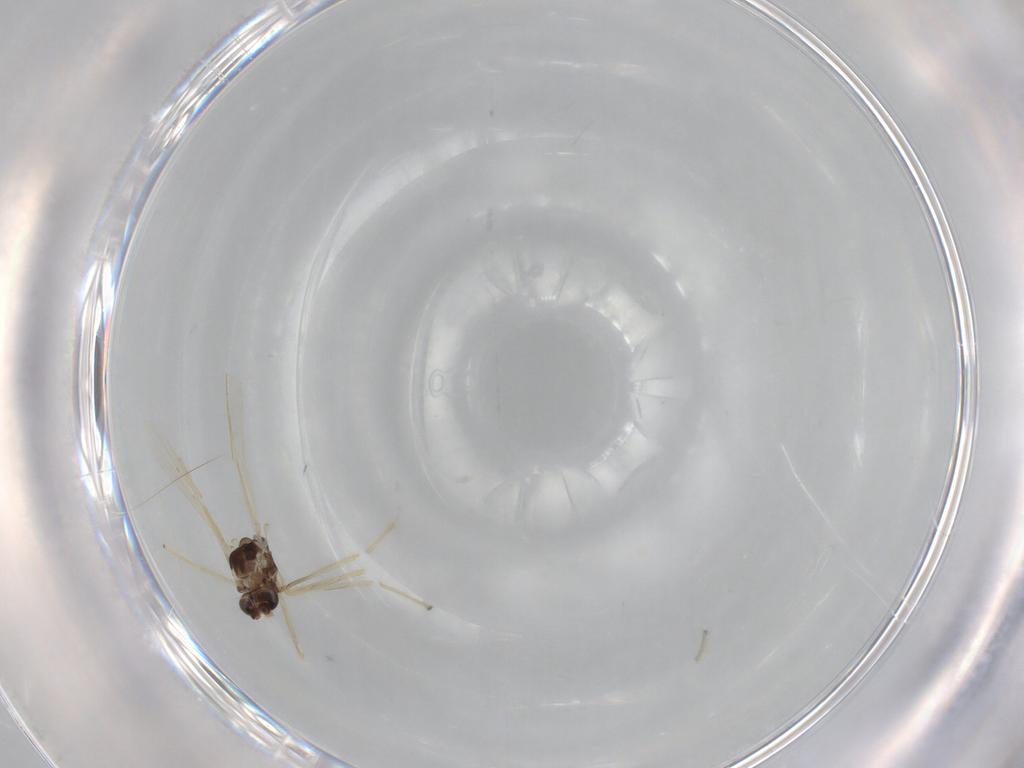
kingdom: Animalia
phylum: Arthropoda
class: Insecta
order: Diptera
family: Chironomidae
